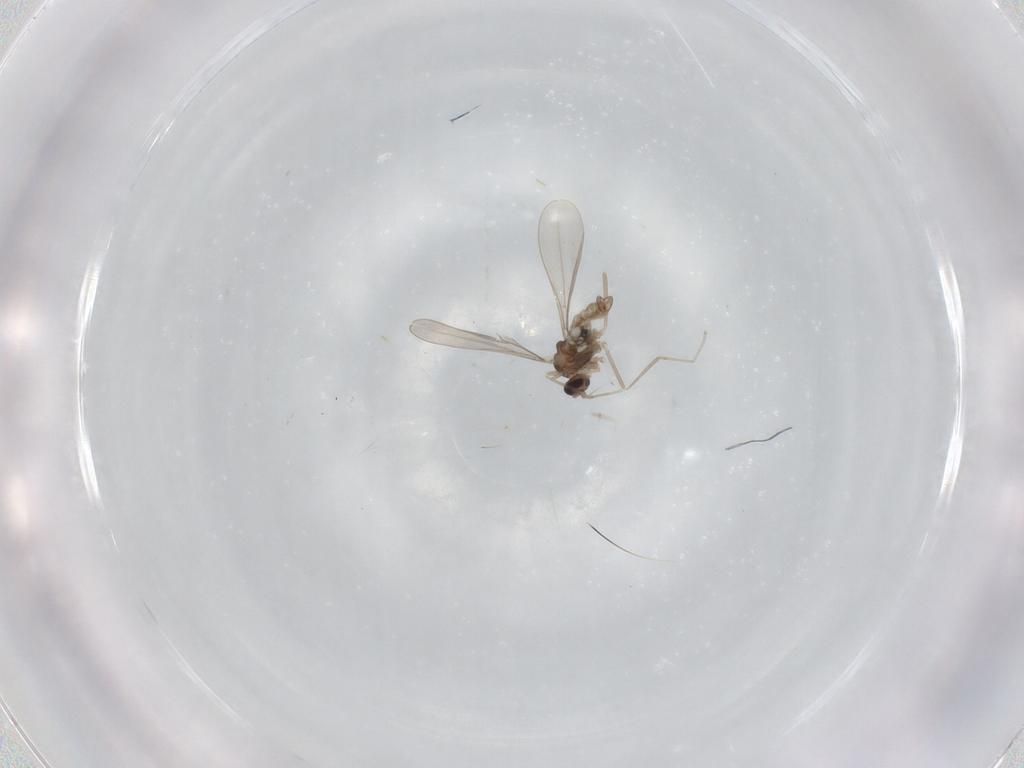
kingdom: Animalia
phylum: Arthropoda
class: Insecta
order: Diptera
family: Cecidomyiidae
